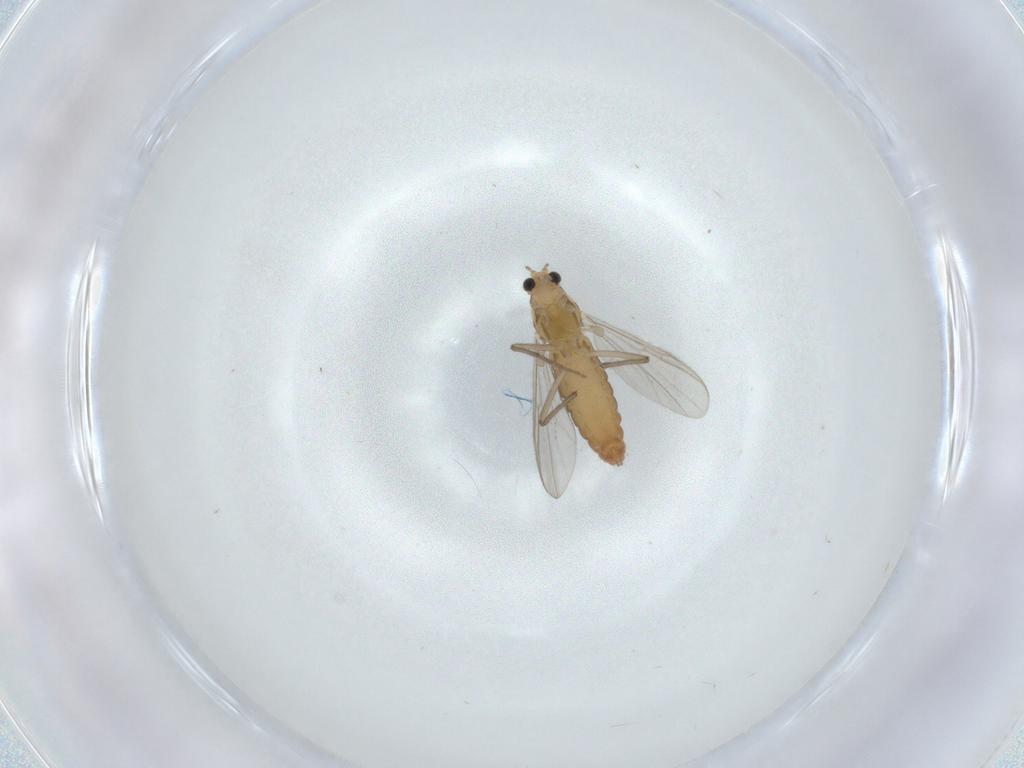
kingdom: Animalia
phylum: Arthropoda
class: Insecta
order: Diptera
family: Chironomidae
